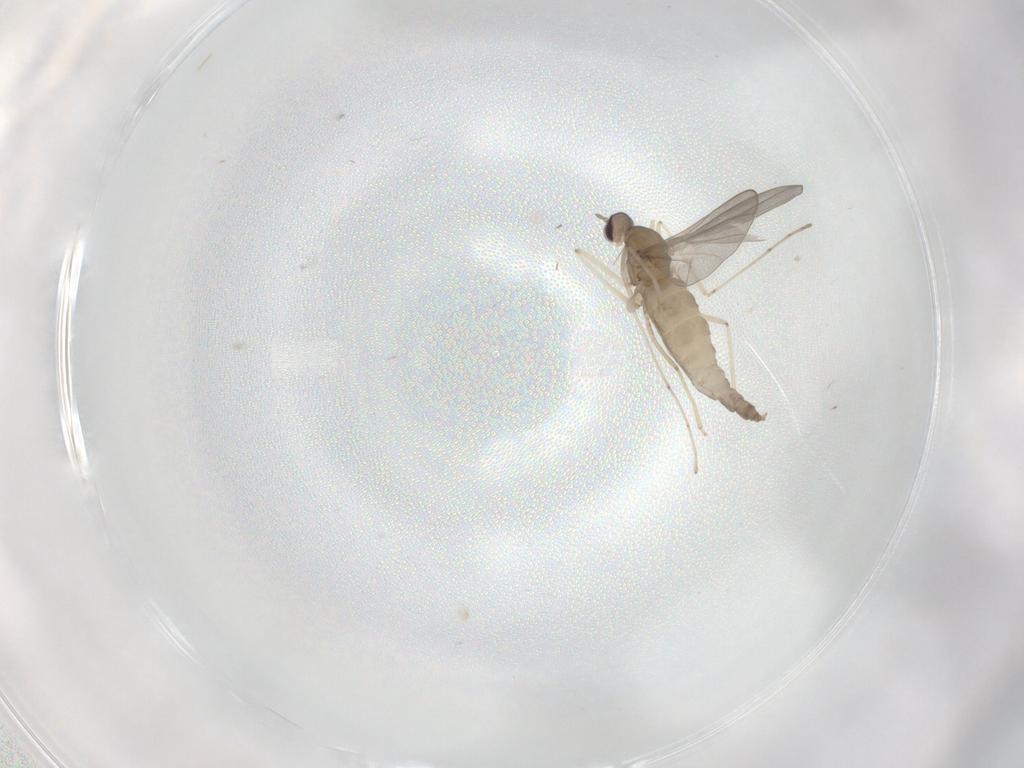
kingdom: Animalia
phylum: Arthropoda
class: Insecta
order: Diptera
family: Cecidomyiidae
